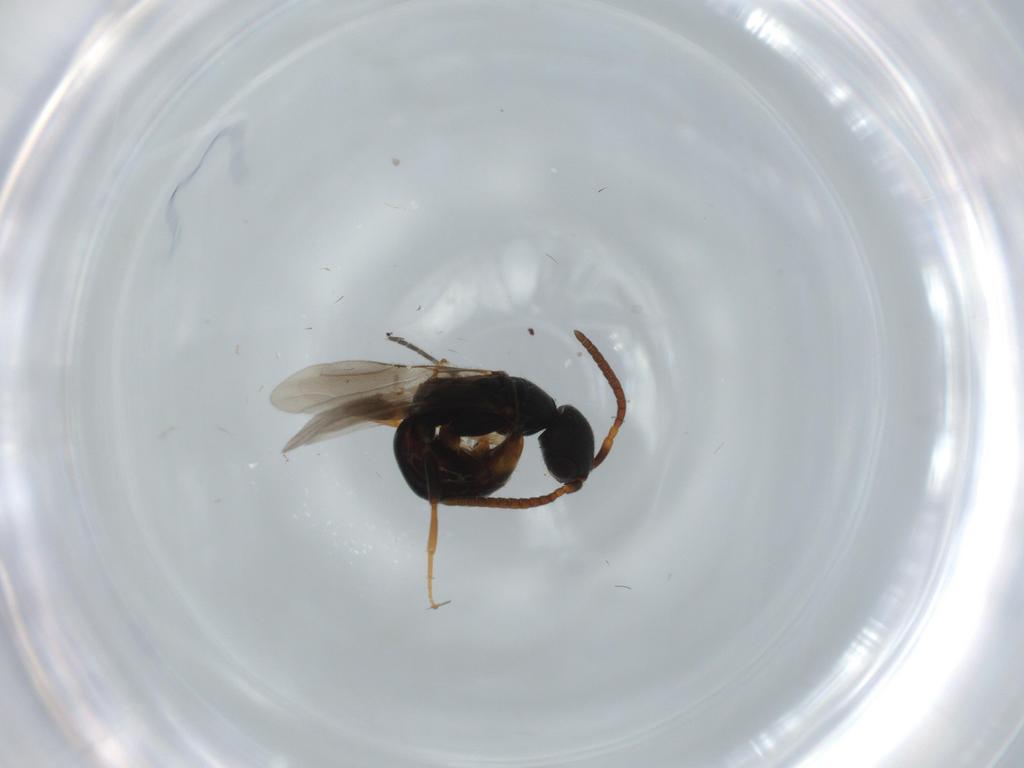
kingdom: Animalia
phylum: Arthropoda
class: Insecta
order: Hymenoptera
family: Bethylidae
